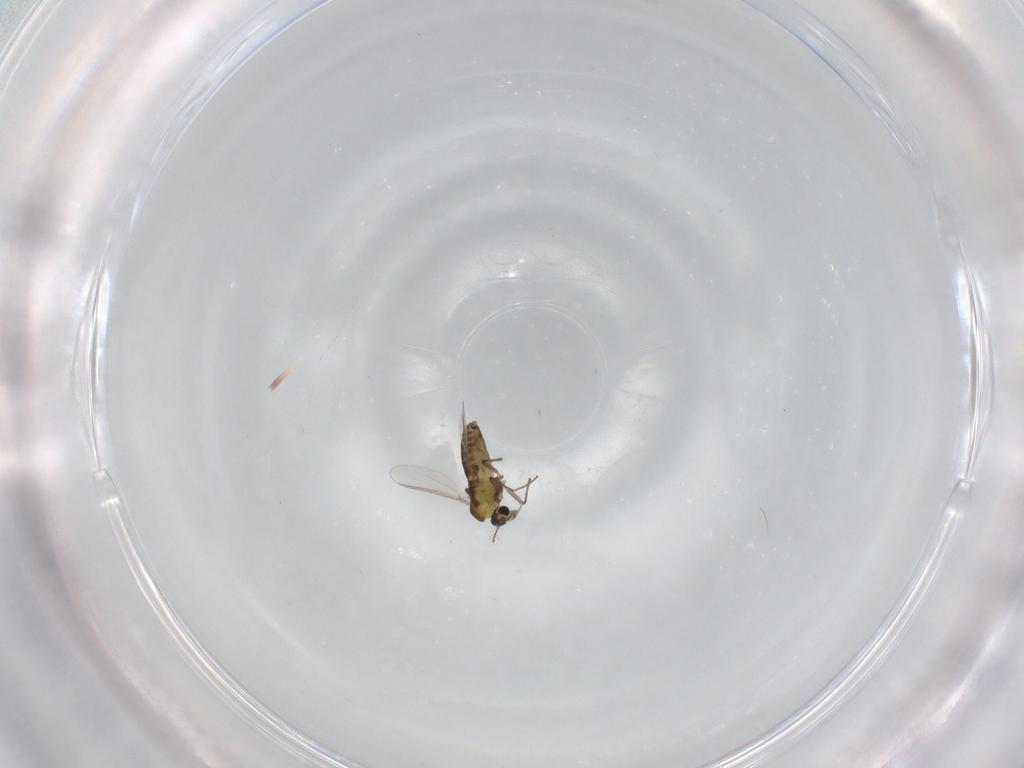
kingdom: Animalia
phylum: Arthropoda
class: Insecta
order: Diptera
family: Chironomidae
